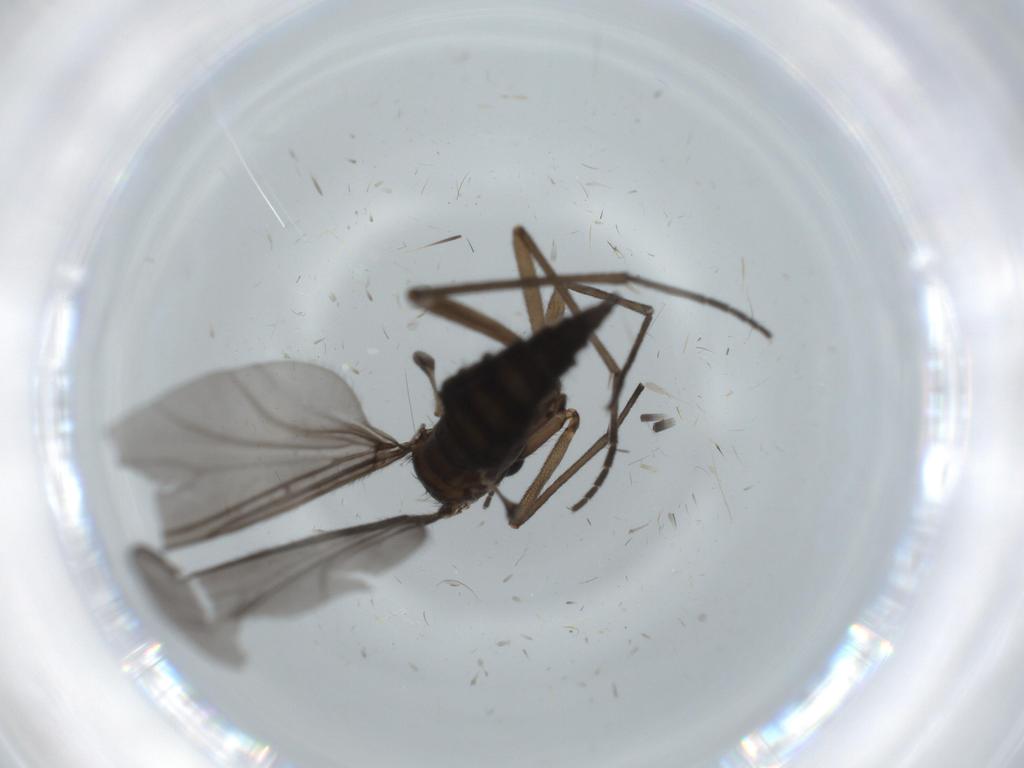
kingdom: Animalia
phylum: Arthropoda
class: Insecta
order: Diptera
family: Sciaridae
